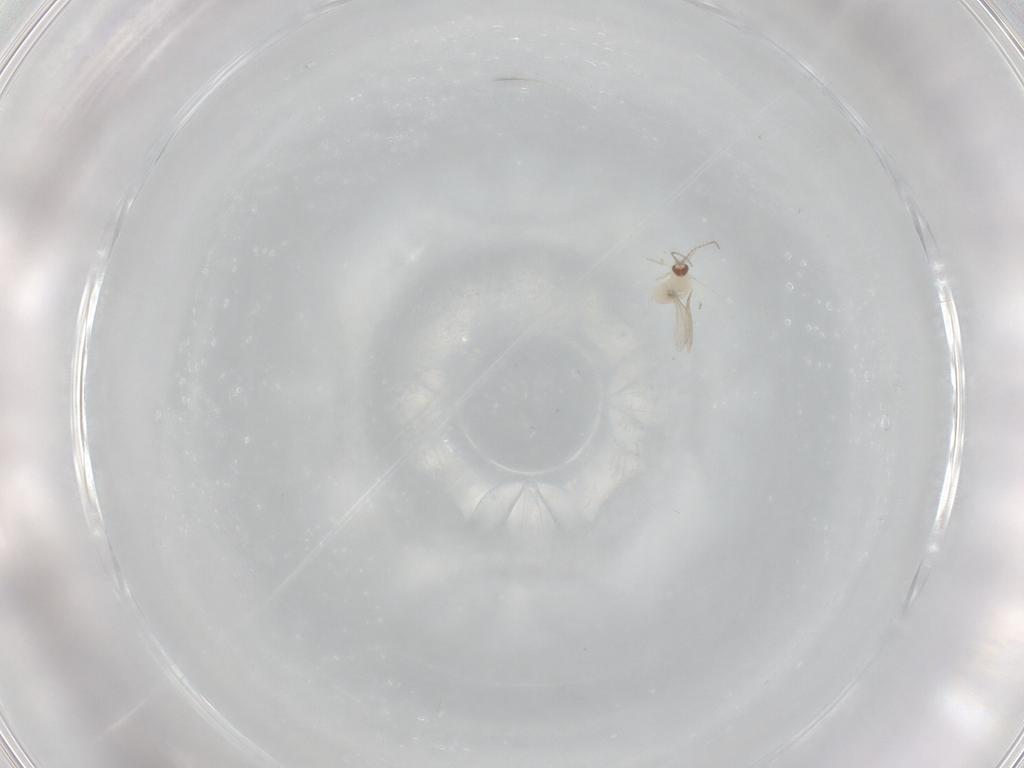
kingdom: Animalia
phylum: Arthropoda
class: Insecta
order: Diptera
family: Cecidomyiidae
